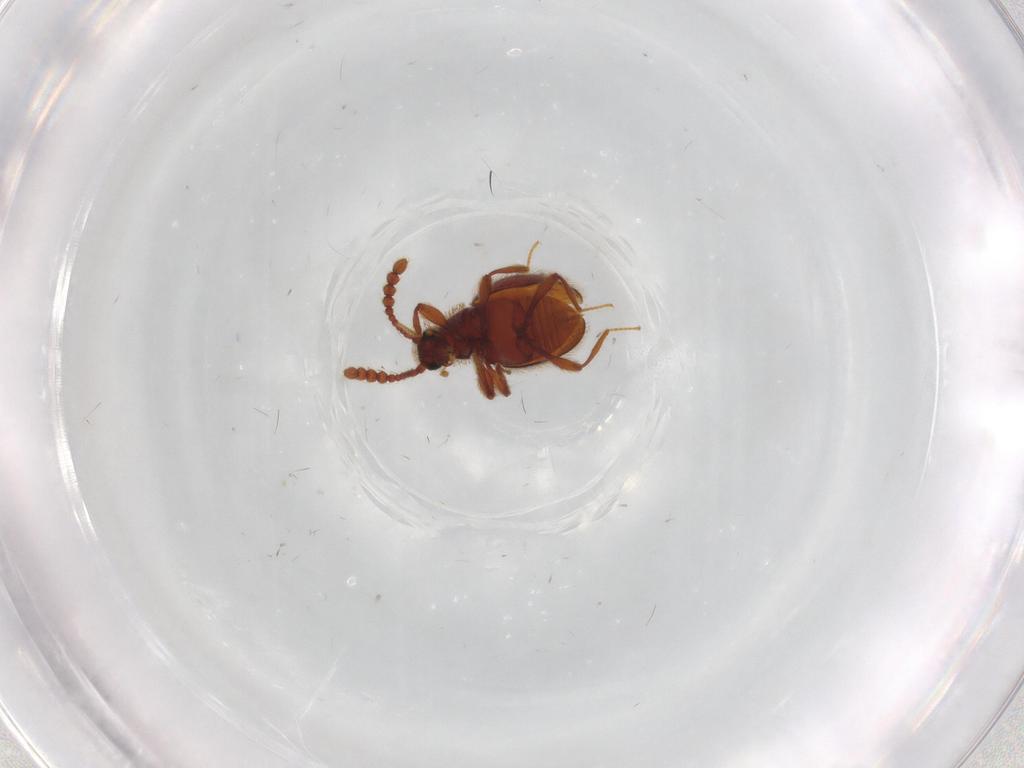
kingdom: Animalia
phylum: Arthropoda
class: Insecta
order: Coleoptera
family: Staphylinidae
